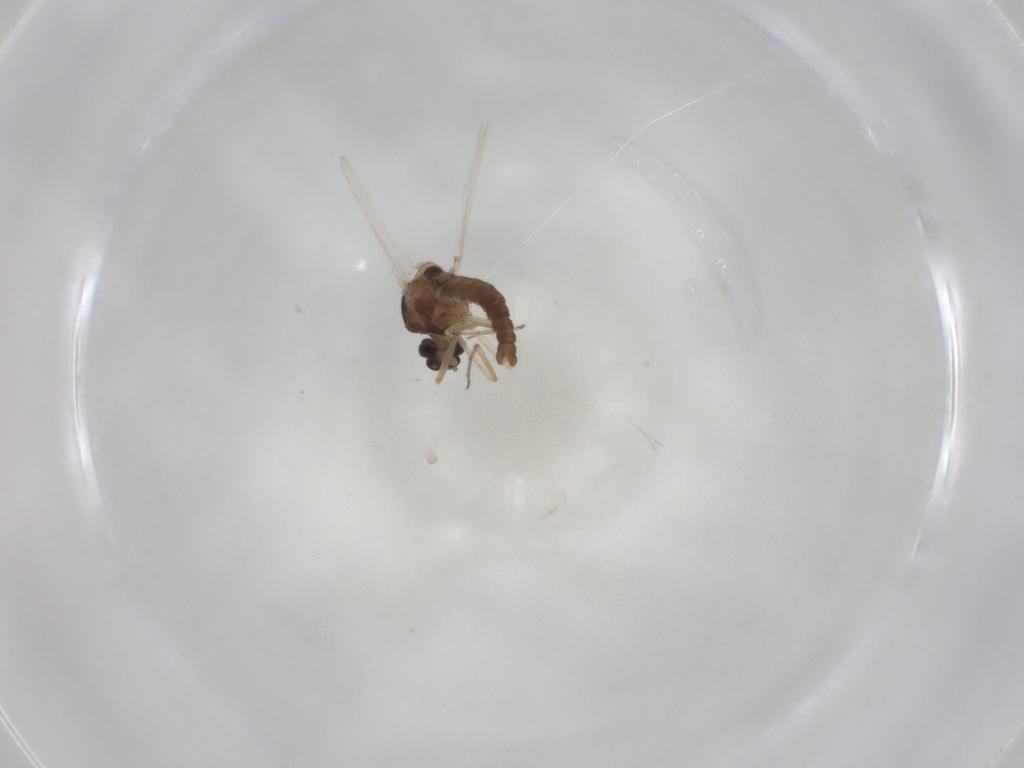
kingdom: Animalia
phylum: Arthropoda
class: Insecta
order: Diptera
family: Ceratopogonidae
